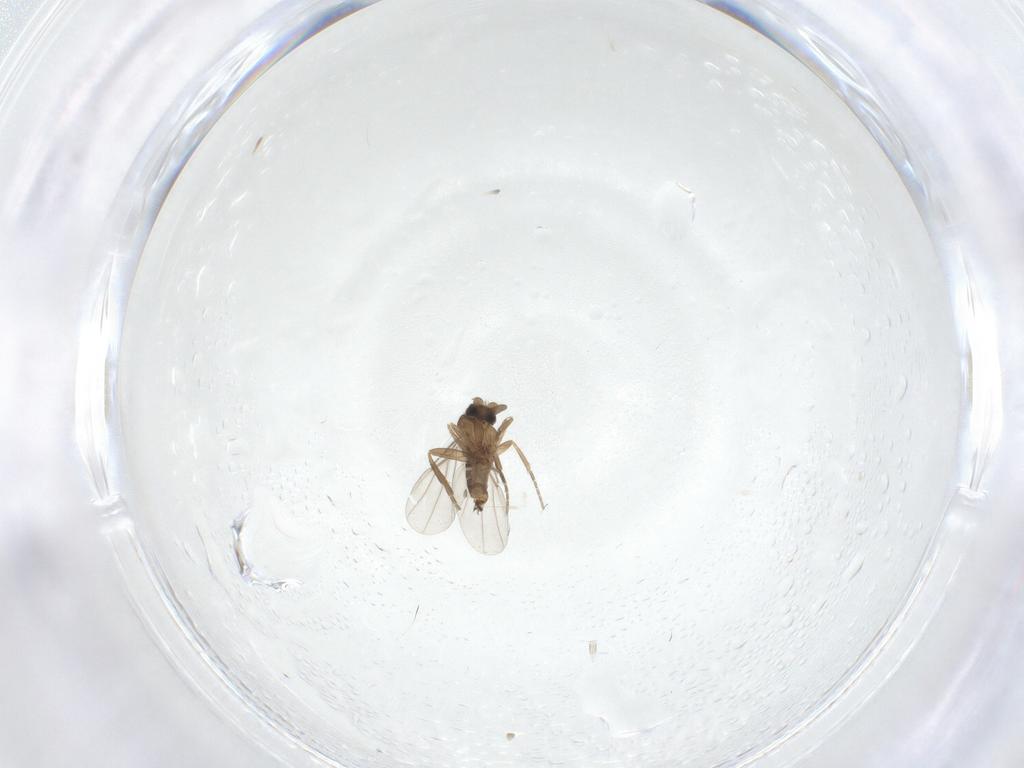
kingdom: Animalia
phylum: Arthropoda
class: Insecta
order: Diptera
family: Phoridae
